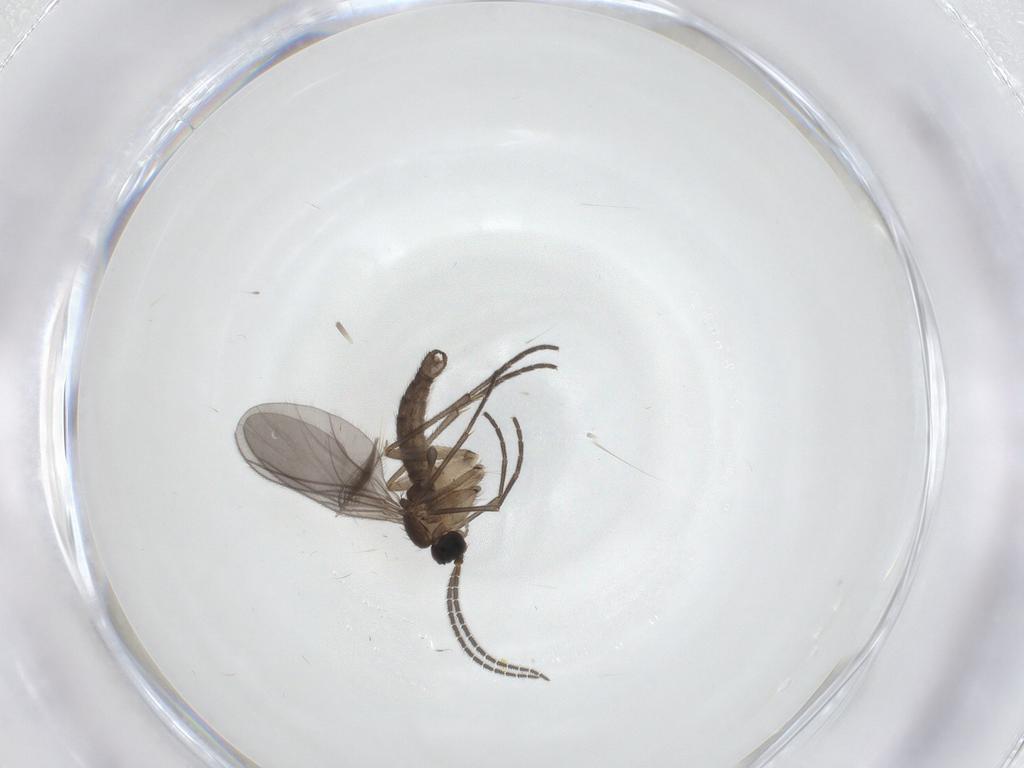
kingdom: Animalia
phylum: Arthropoda
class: Insecta
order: Diptera
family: Sciaridae
